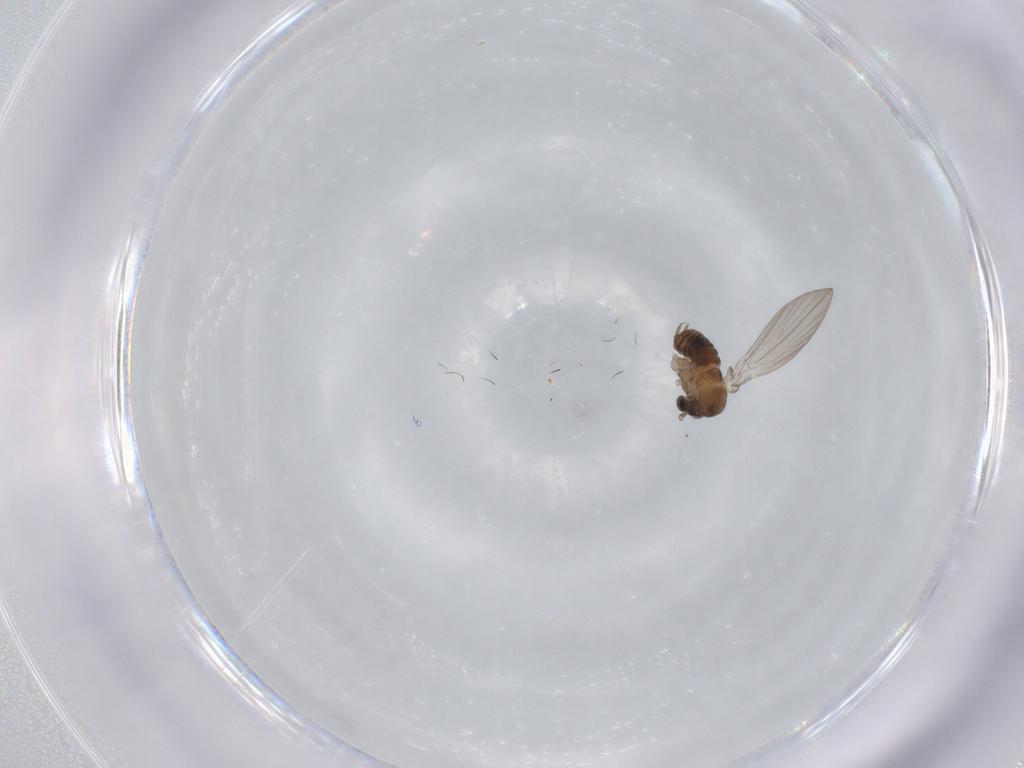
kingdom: Animalia
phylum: Arthropoda
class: Insecta
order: Diptera
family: Psychodidae
